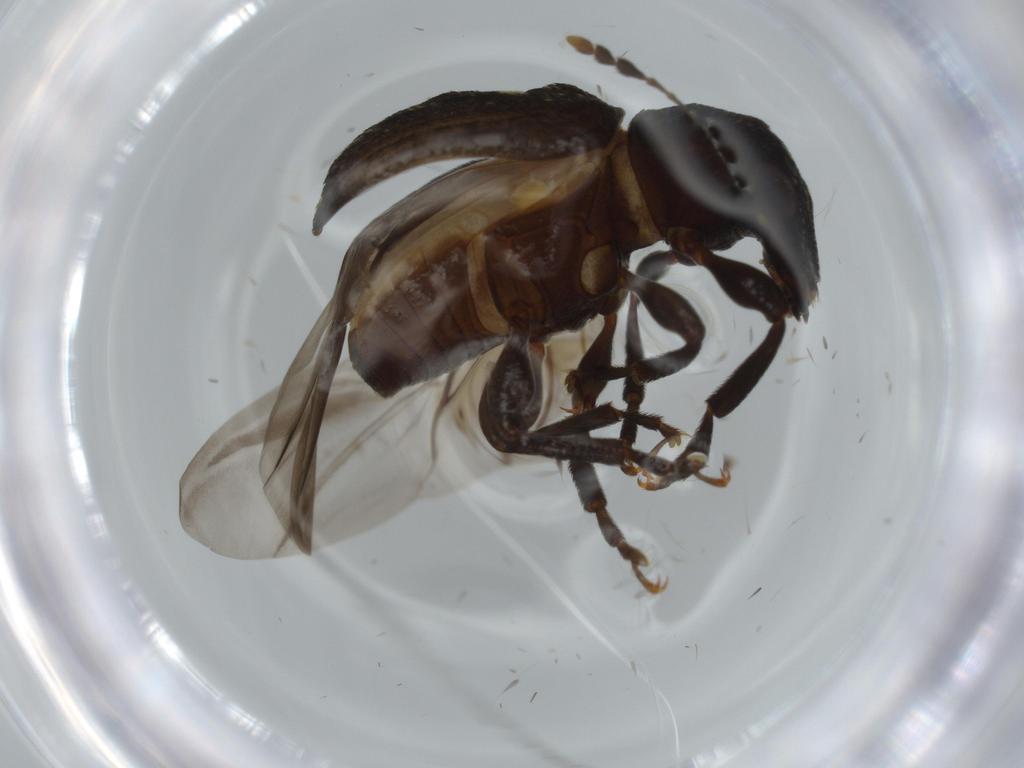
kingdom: Animalia
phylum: Arthropoda
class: Insecta
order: Coleoptera
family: Anthribidae
